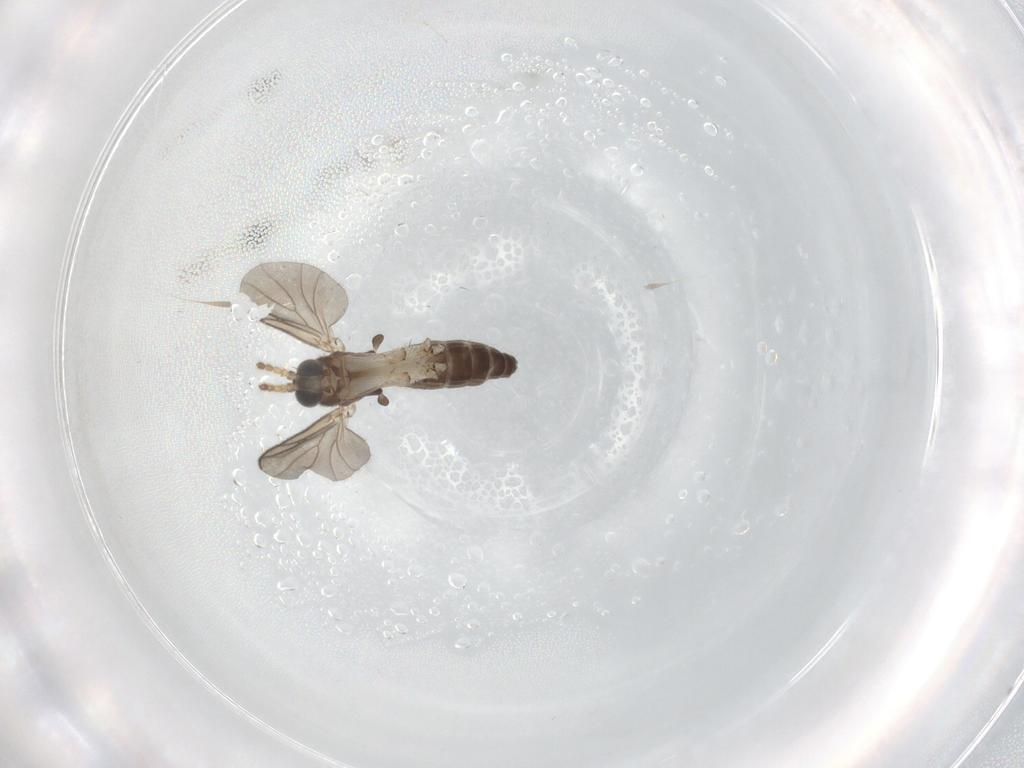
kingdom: Animalia
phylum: Arthropoda
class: Insecta
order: Diptera
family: Mycetophilidae
